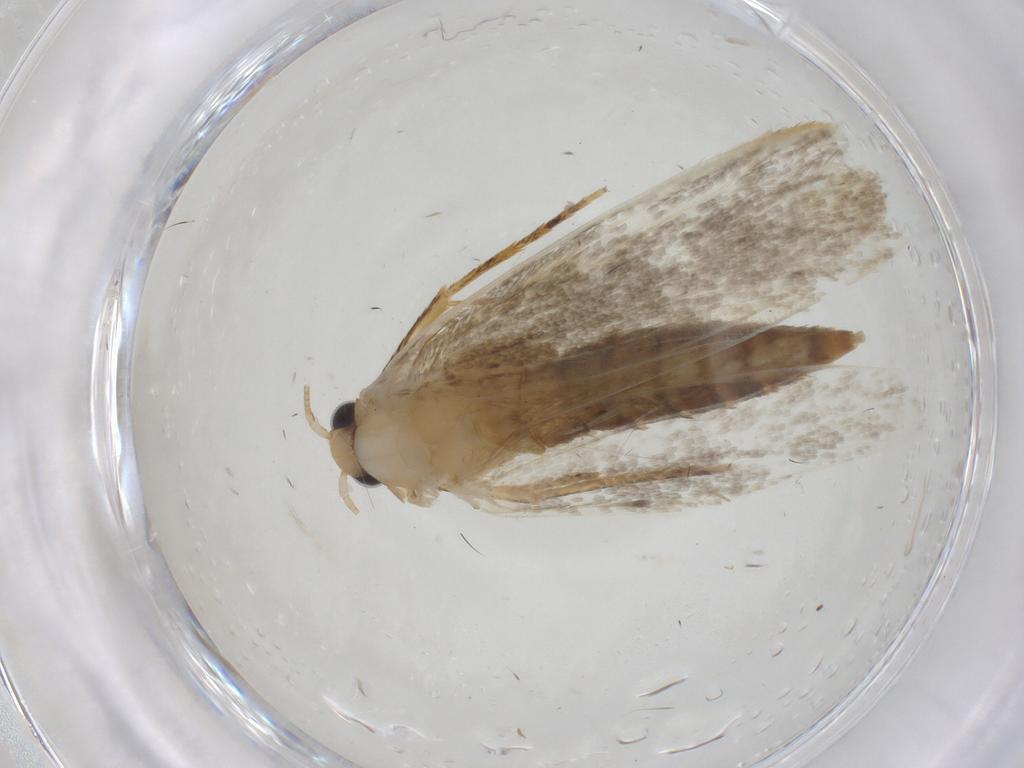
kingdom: Animalia
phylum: Arthropoda
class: Insecta
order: Lepidoptera
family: Tineidae
